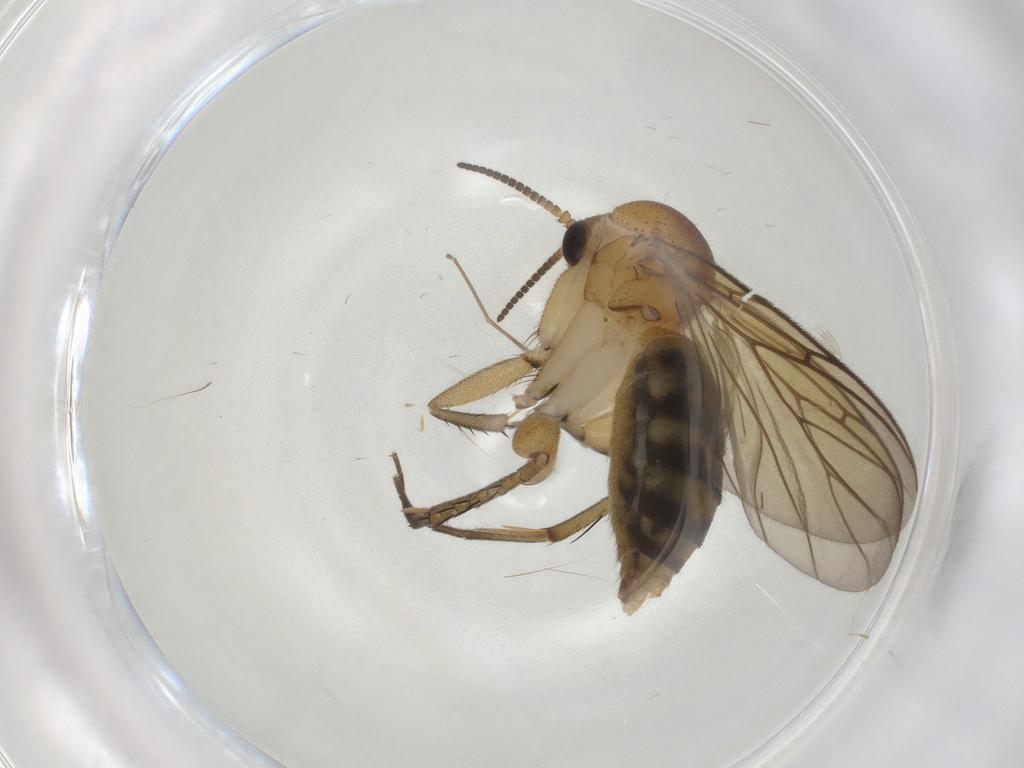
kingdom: Animalia
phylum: Arthropoda
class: Insecta
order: Diptera
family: Mycetophilidae
